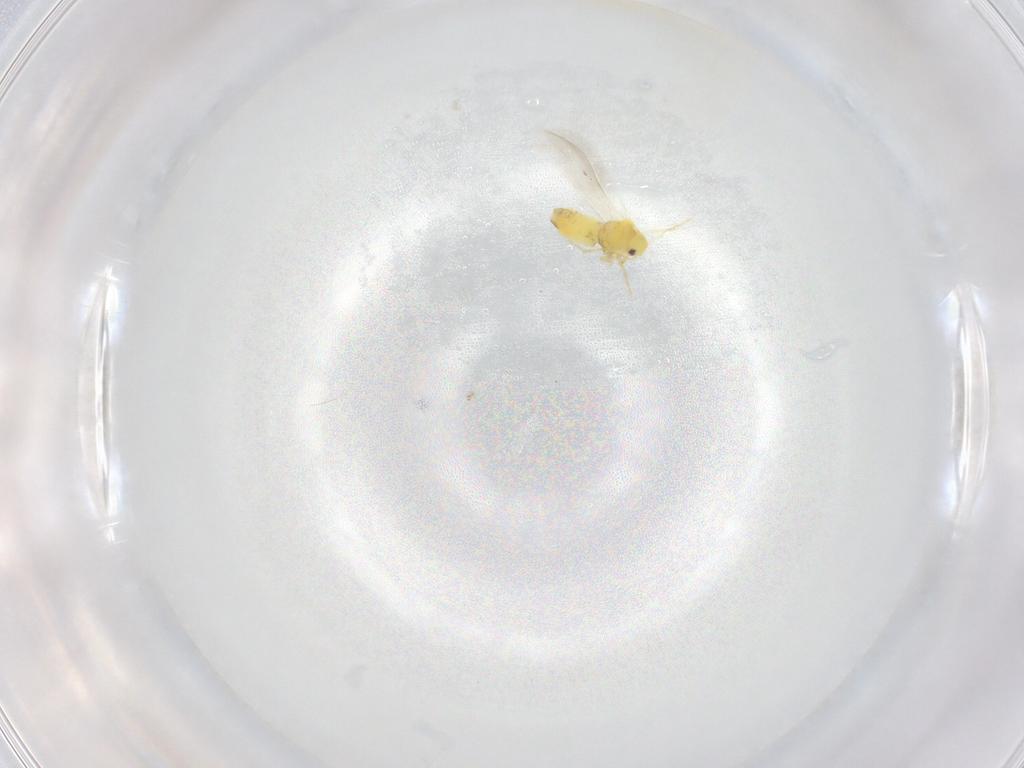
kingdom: Animalia
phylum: Arthropoda
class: Insecta
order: Hemiptera
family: Aleyrodidae
